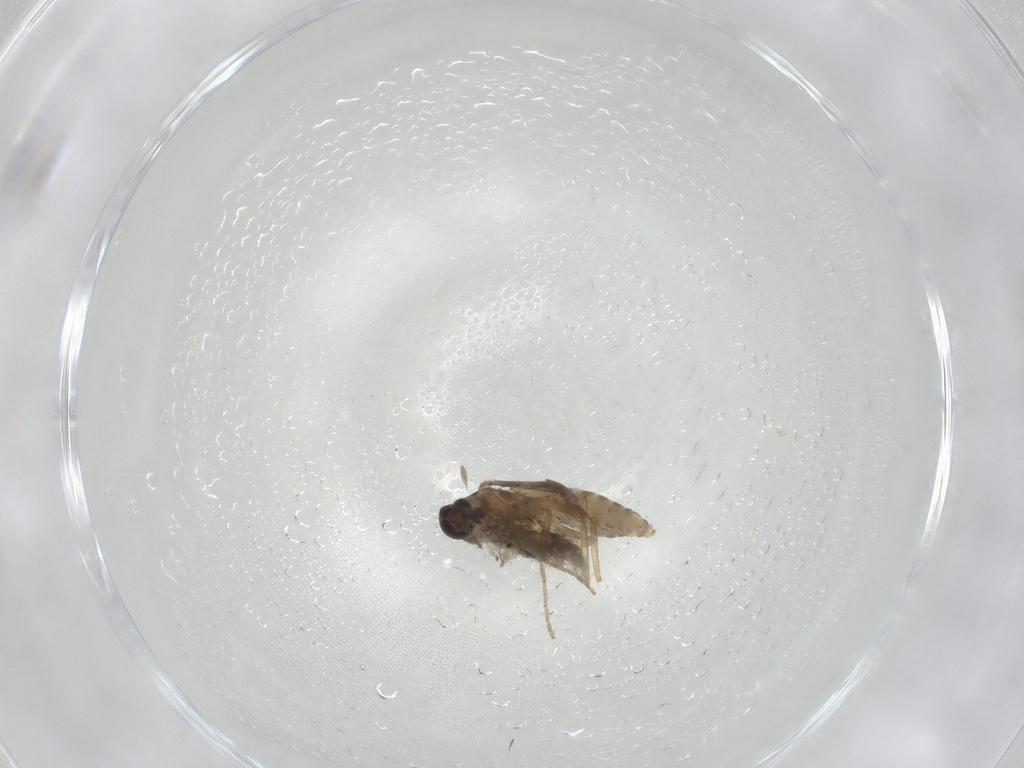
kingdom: Animalia
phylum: Arthropoda
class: Insecta
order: Diptera
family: Chironomidae
